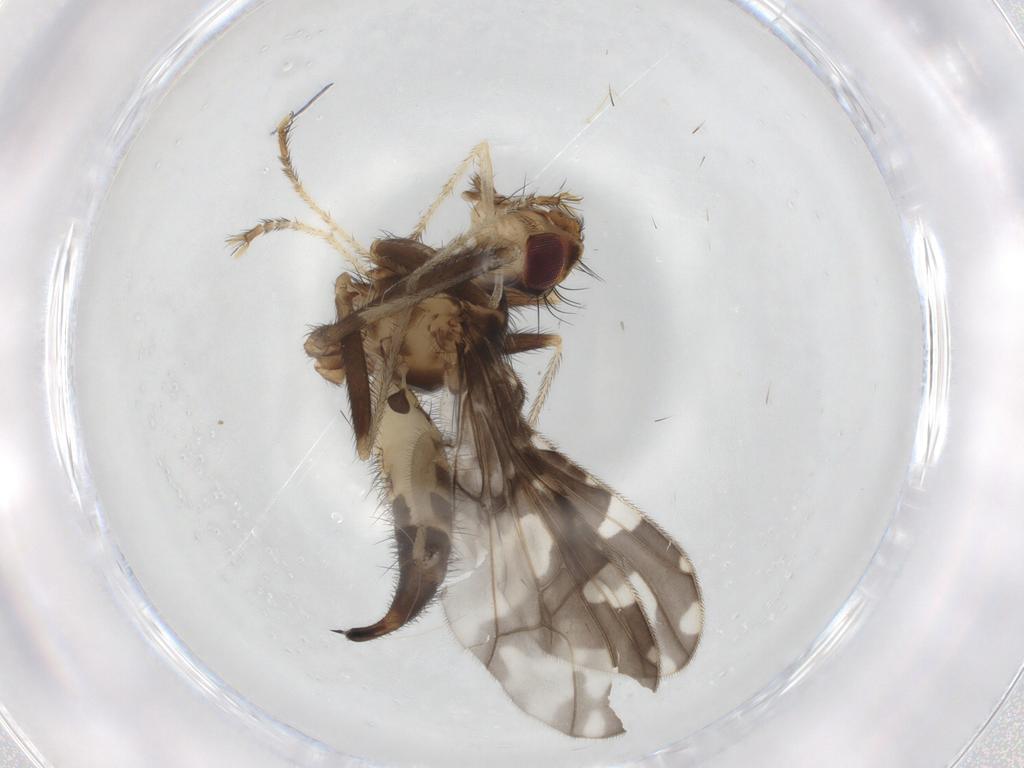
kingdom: Animalia
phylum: Arthropoda
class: Insecta
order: Diptera
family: Pyrgotidae
